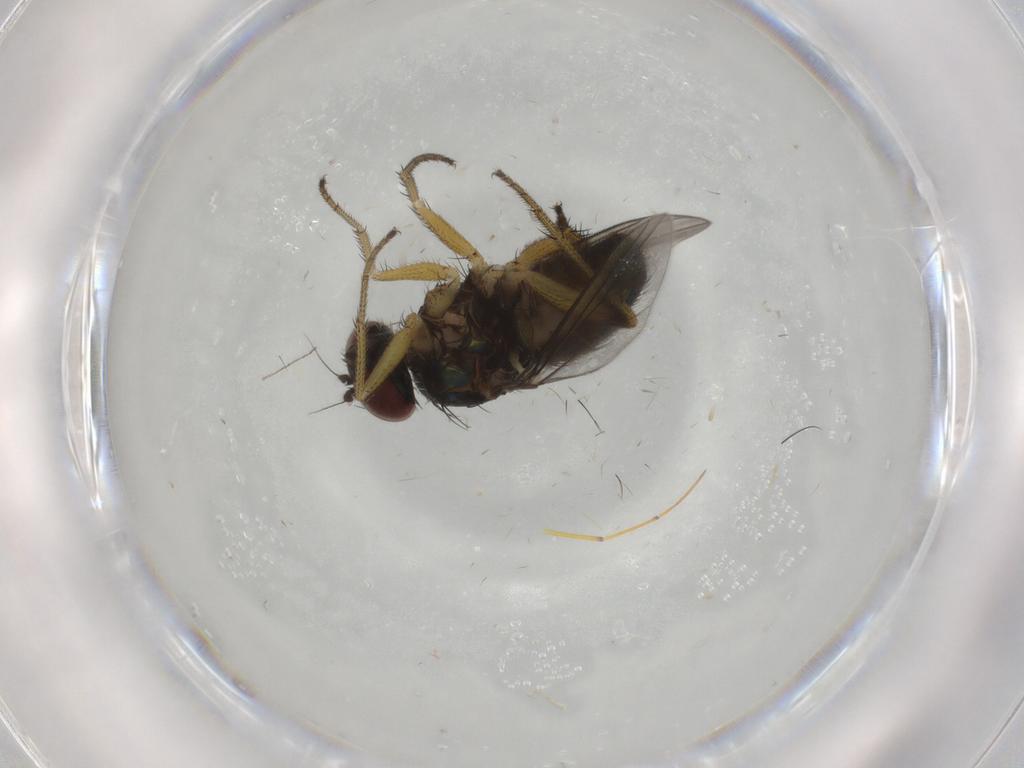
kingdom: Animalia
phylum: Arthropoda
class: Insecta
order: Diptera
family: Dolichopodidae
